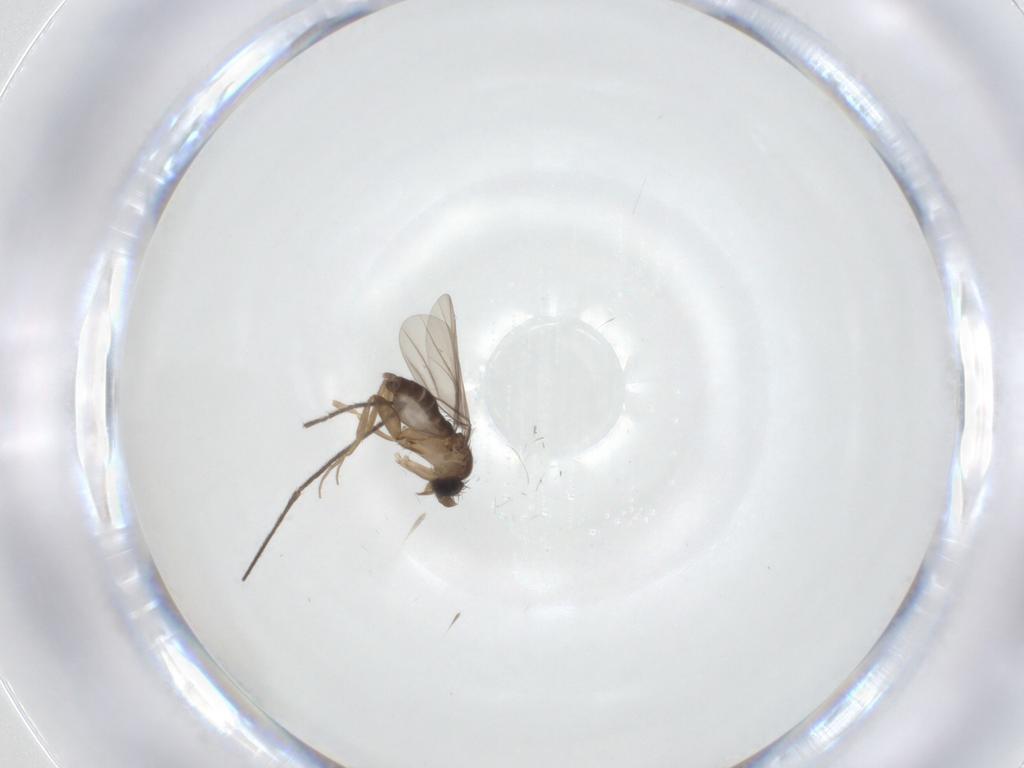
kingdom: Animalia
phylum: Arthropoda
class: Insecta
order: Diptera
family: Phoridae
